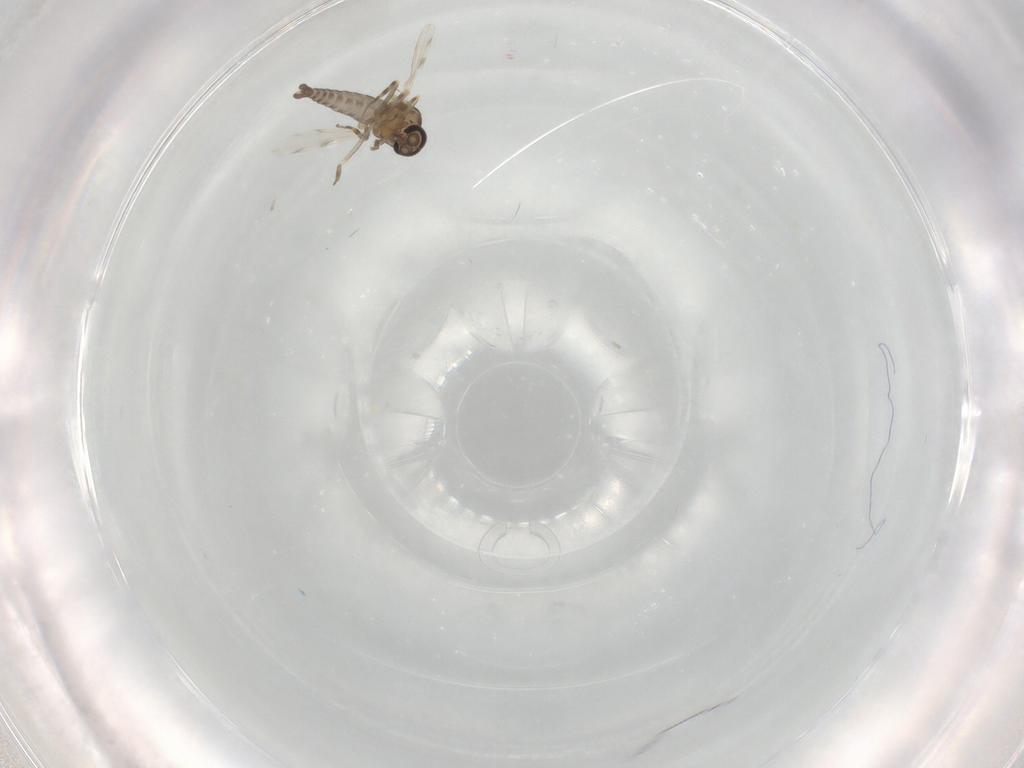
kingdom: Animalia
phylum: Arthropoda
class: Insecta
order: Diptera
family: Ceratopogonidae
